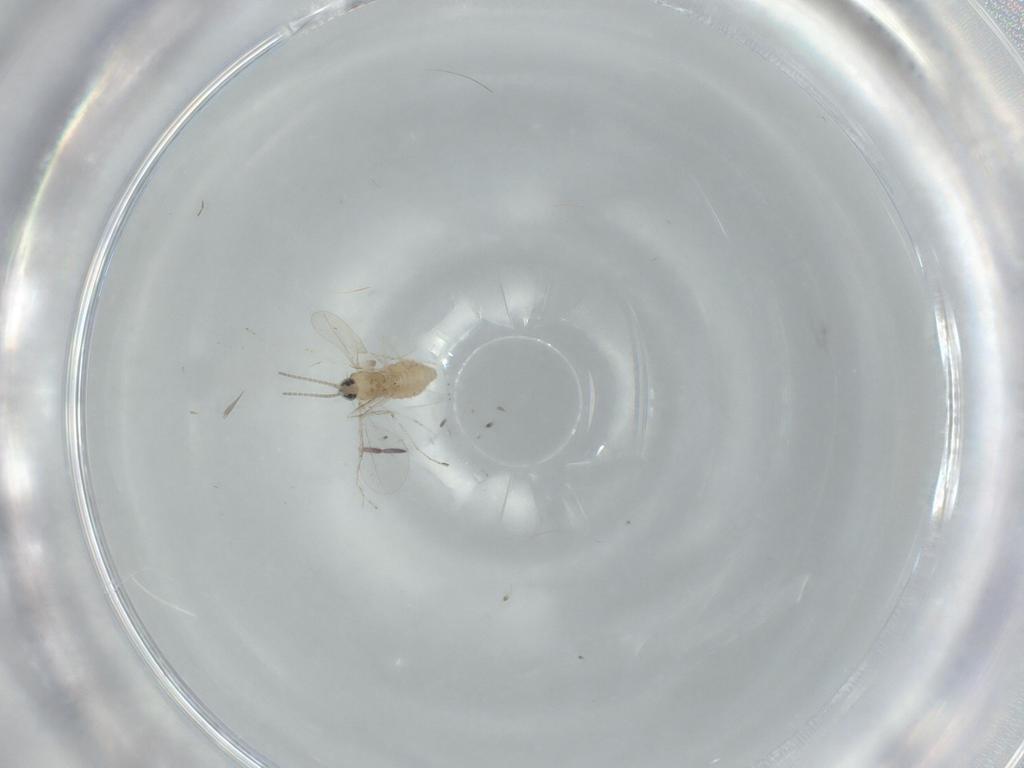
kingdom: Animalia
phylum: Arthropoda
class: Insecta
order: Diptera
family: Cecidomyiidae
